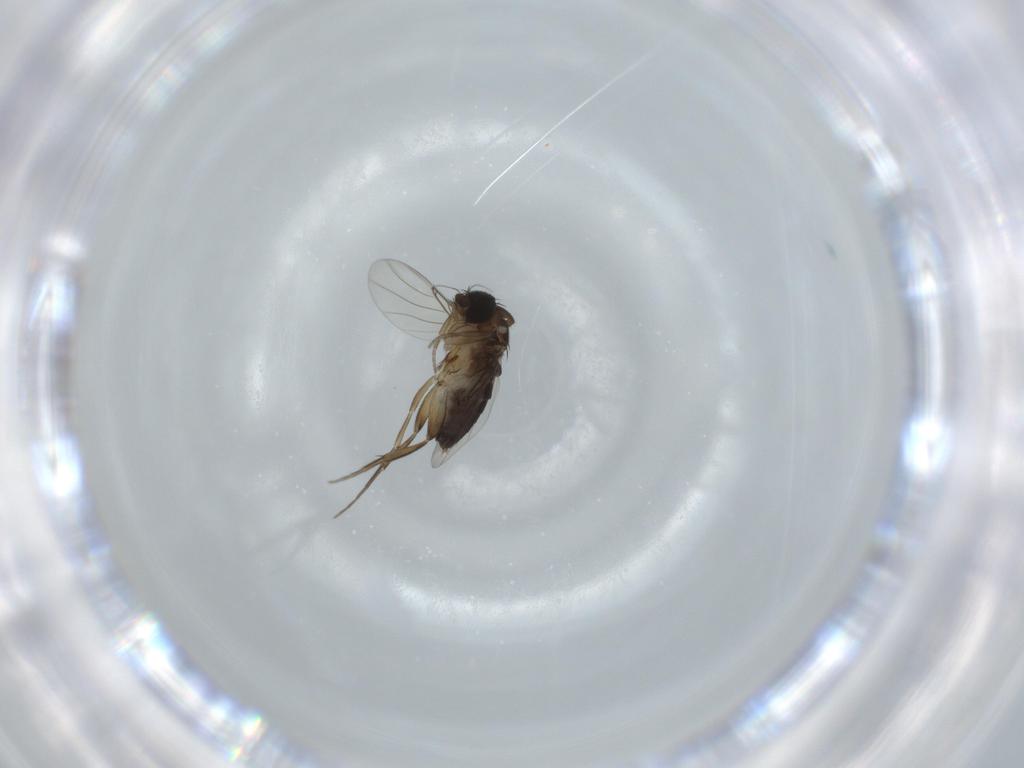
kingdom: Animalia
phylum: Arthropoda
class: Insecta
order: Diptera
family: Phoridae
